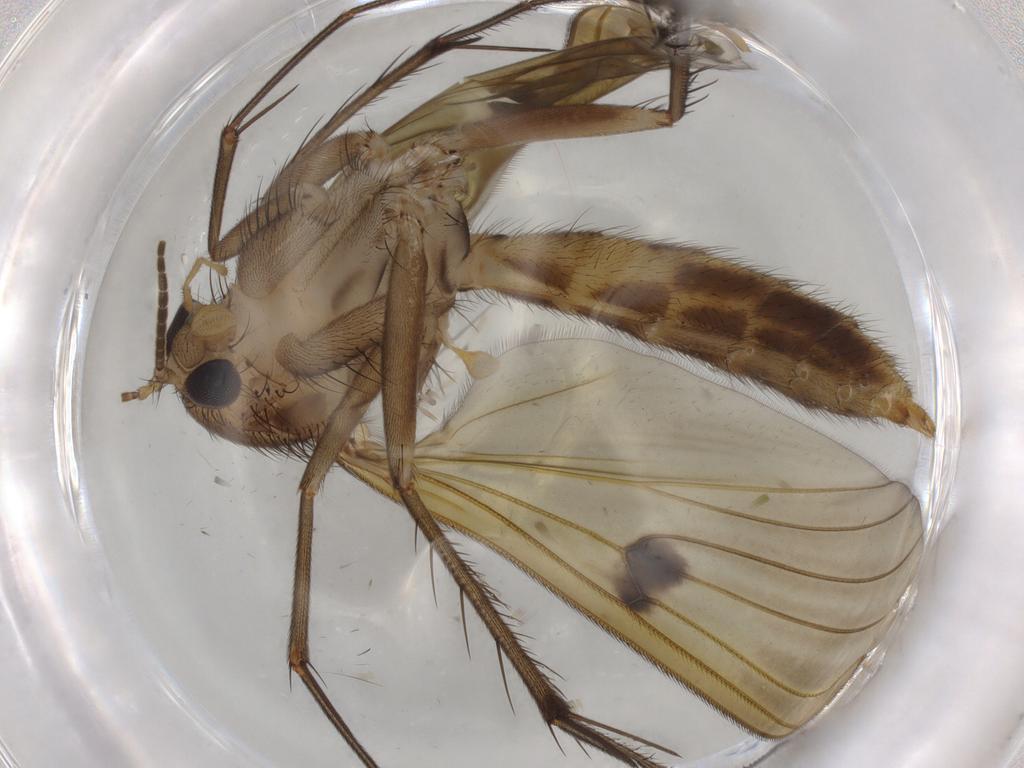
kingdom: Animalia
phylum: Arthropoda
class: Insecta
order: Diptera
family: Mycetophilidae
